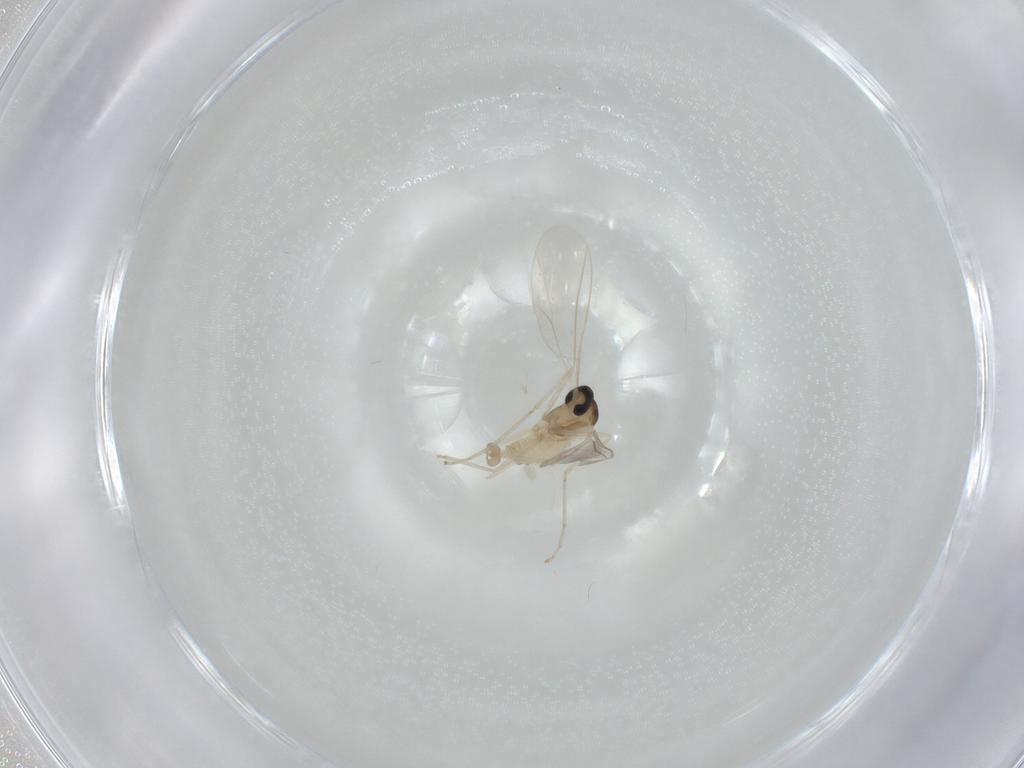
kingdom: Animalia
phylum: Arthropoda
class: Insecta
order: Diptera
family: Cecidomyiidae
